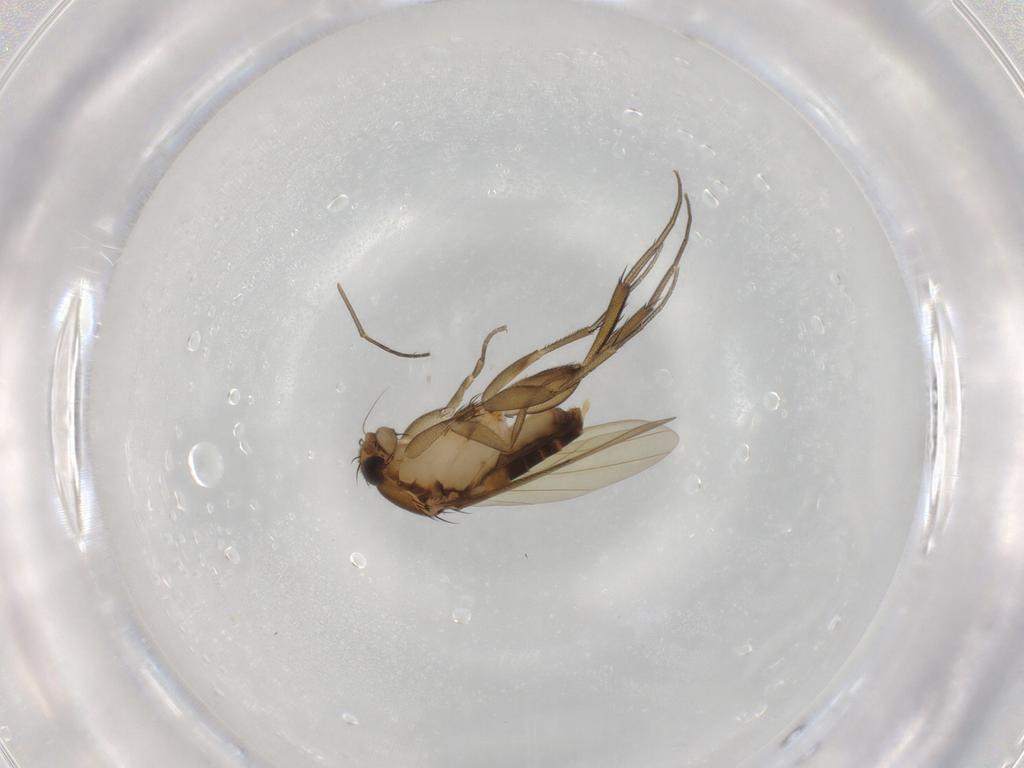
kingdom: Animalia
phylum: Arthropoda
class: Insecta
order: Diptera
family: Phoridae
